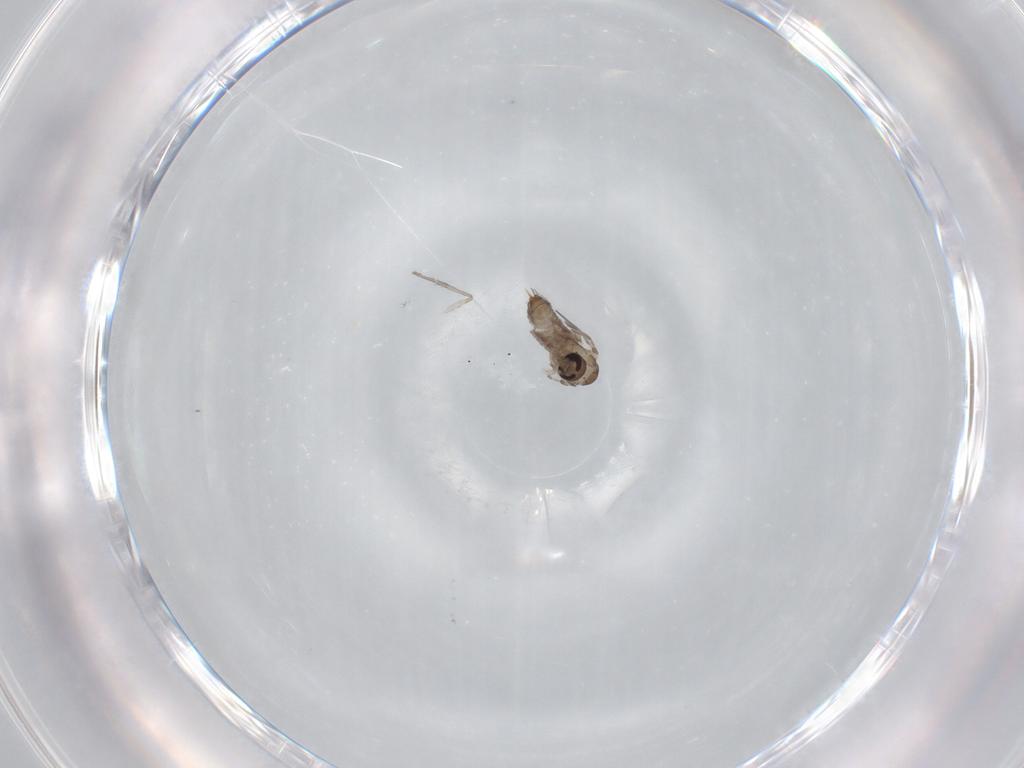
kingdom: Animalia
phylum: Arthropoda
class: Insecta
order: Diptera
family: Psychodidae
